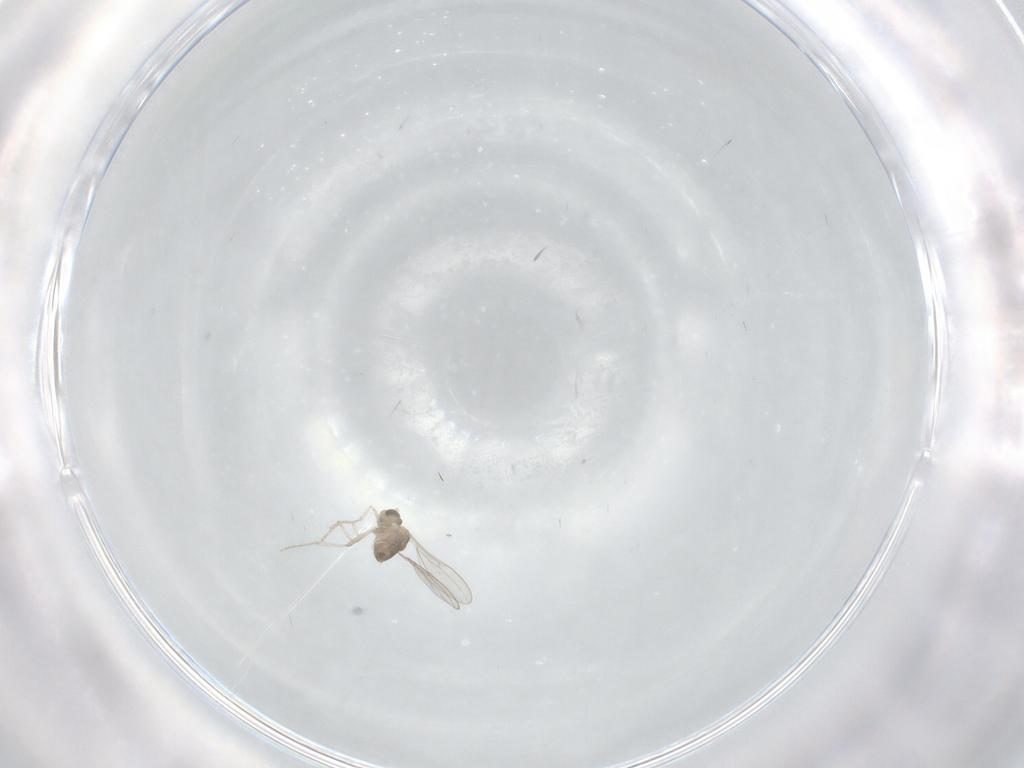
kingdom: Animalia
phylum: Arthropoda
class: Insecta
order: Diptera
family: Cecidomyiidae
